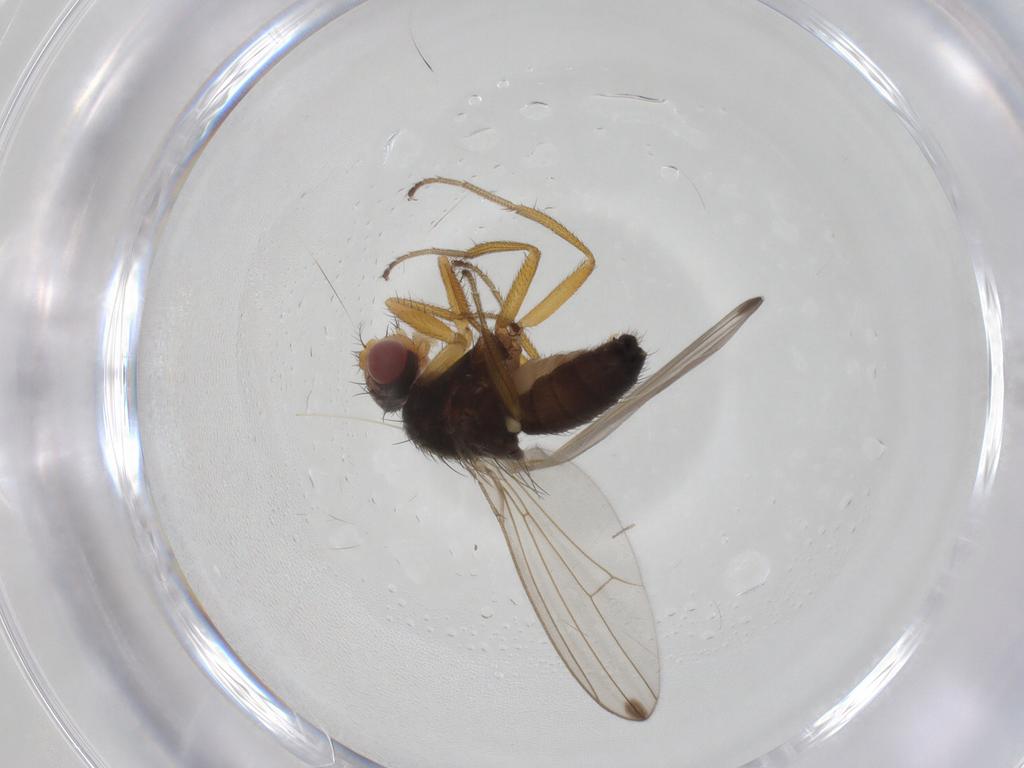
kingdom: Animalia
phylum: Arthropoda
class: Insecta
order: Diptera
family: Drosophilidae
